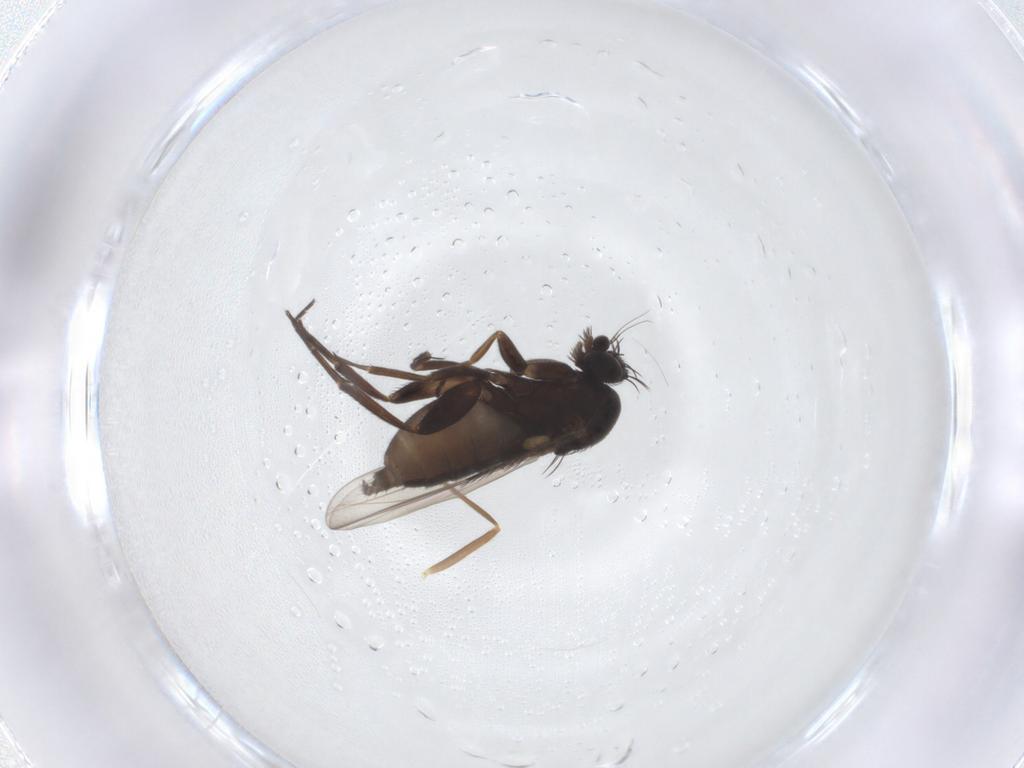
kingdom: Animalia
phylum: Arthropoda
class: Insecta
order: Diptera
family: Phoridae
